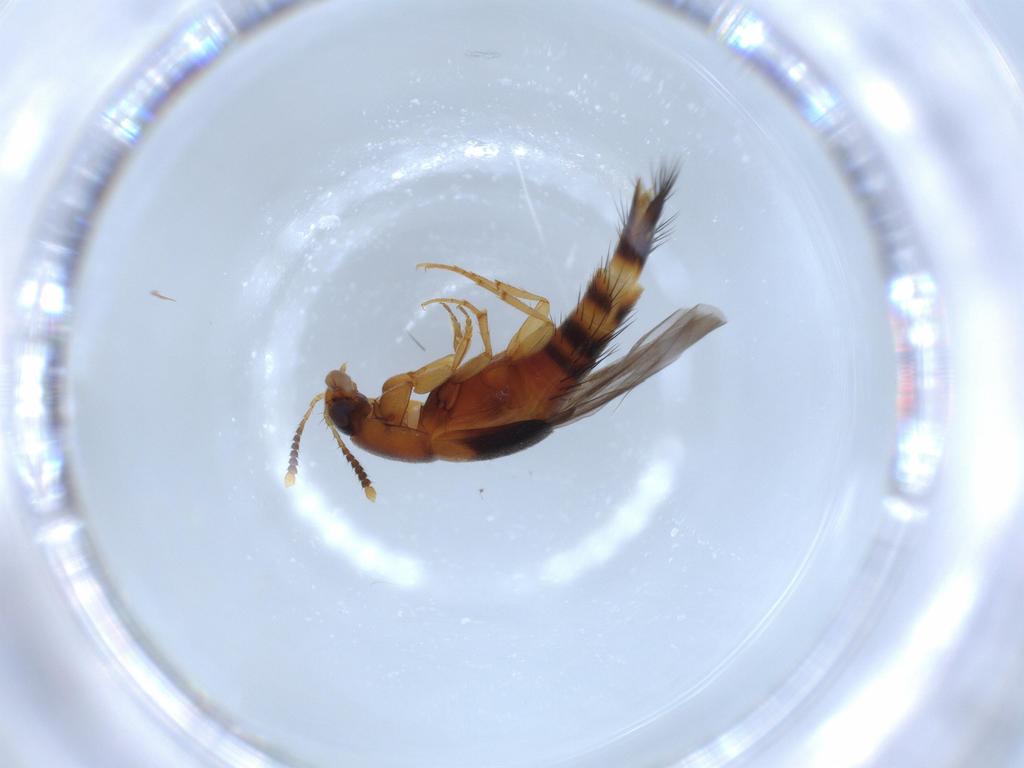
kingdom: Animalia
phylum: Arthropoda
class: Insecta
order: Coleoptera
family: Staphylinidae
